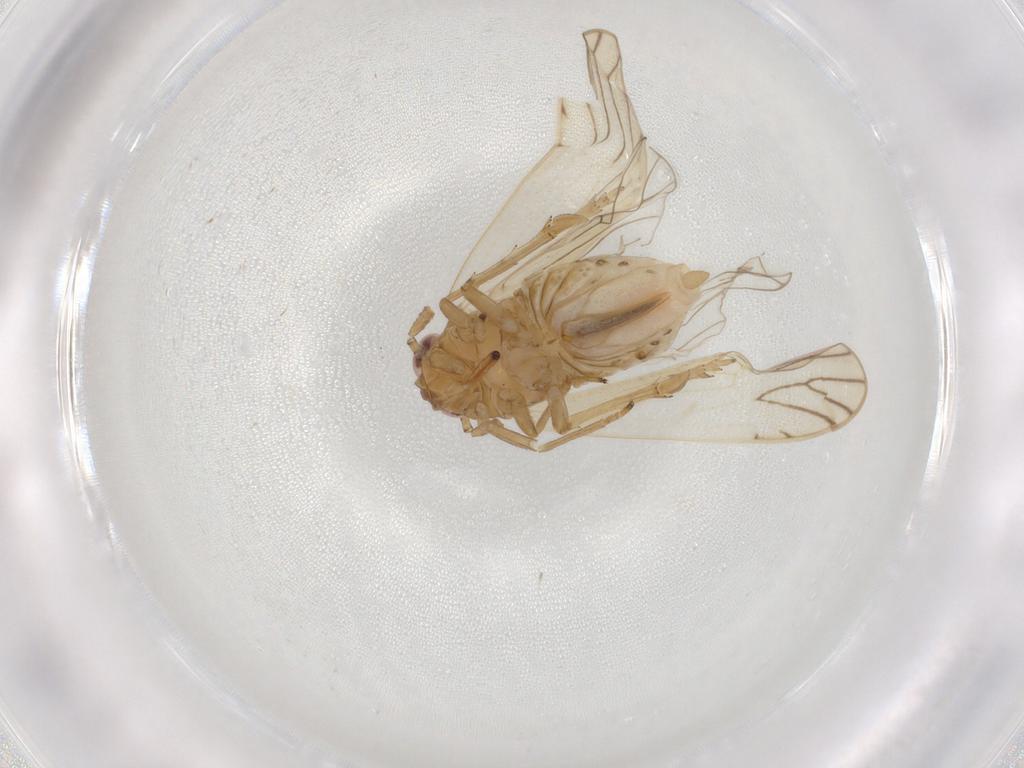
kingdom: Animalia
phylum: Arthropoda
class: Insecta
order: Hemiptera
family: Delphacidae
